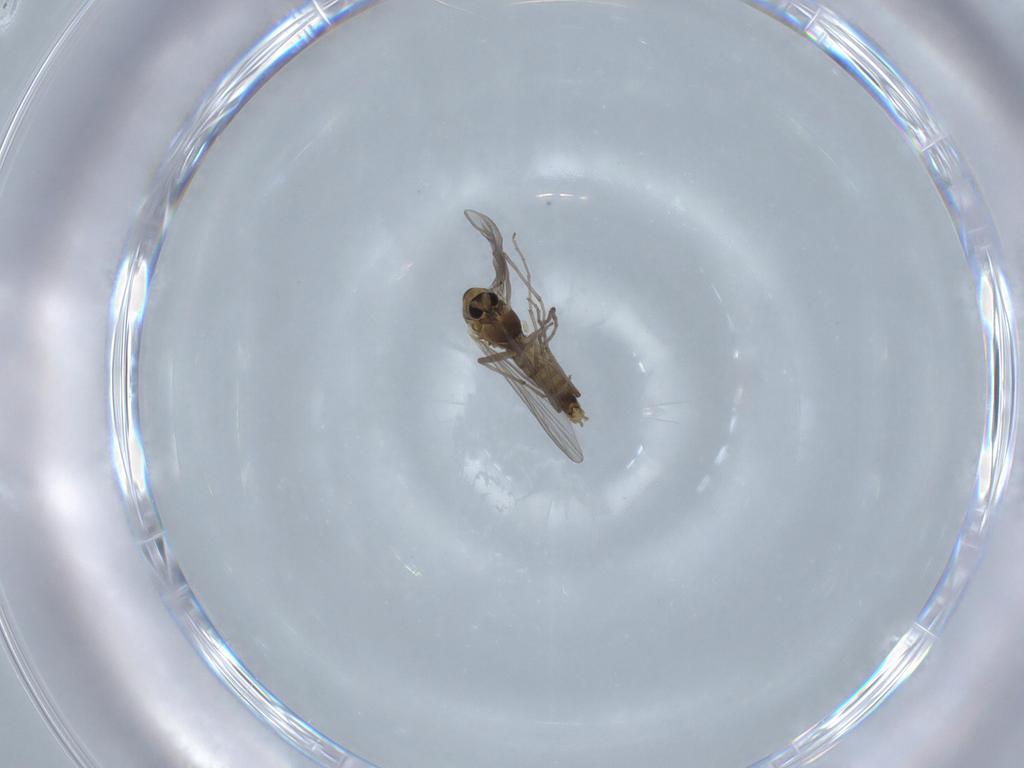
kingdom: Animalia
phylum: Arthropoda
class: Insecta
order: Diptera
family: Chironomidae
